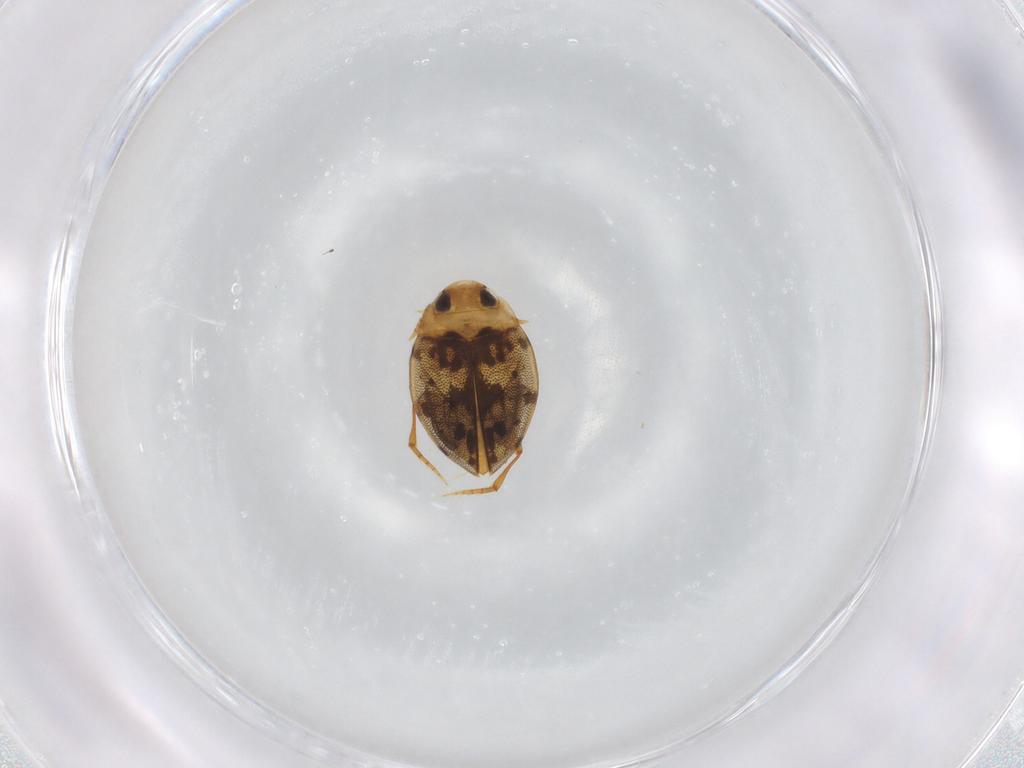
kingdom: Animalia
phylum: Arthropoda
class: Insecta
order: Coleoptera
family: Dytiscidae
